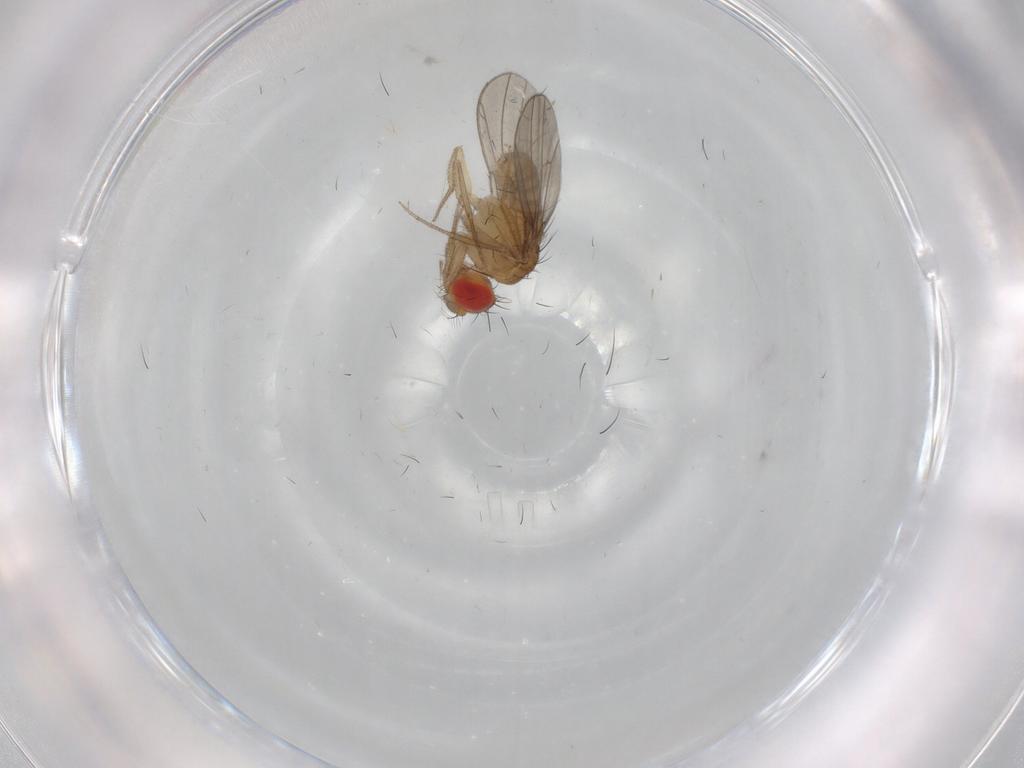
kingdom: Animalia
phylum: Arthropoda
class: Insecta
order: Diptera
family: Drosophilidae
